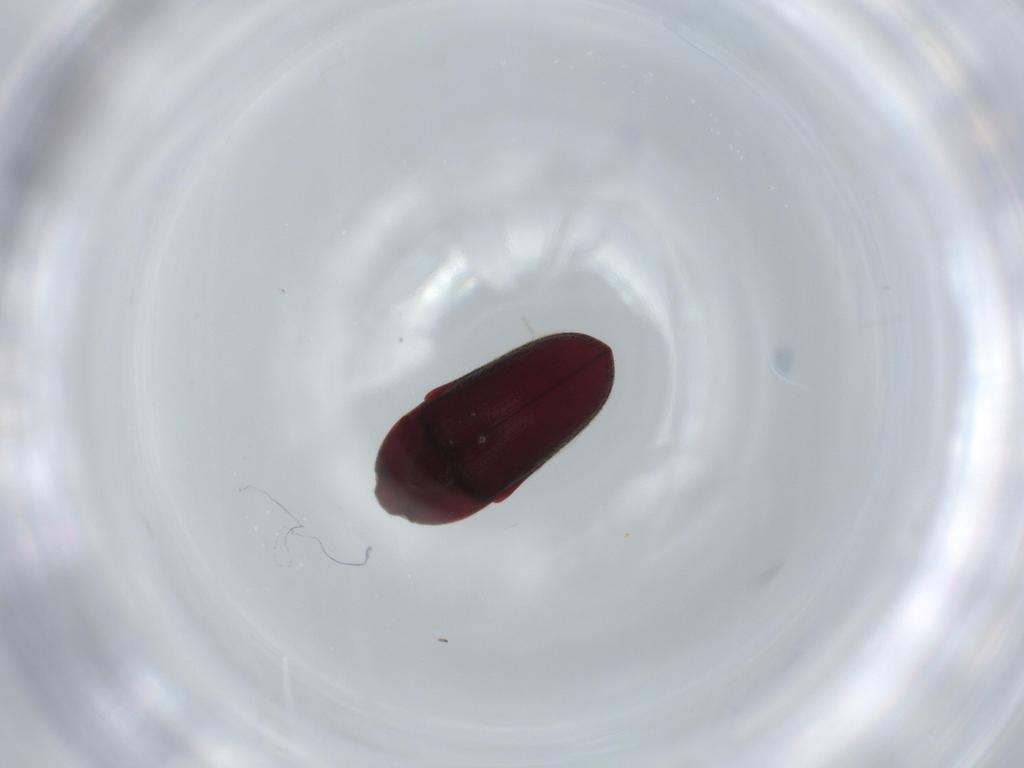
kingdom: Animalia
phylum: Arthropoda
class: Insecta
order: Coleoptera
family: Throscidae
